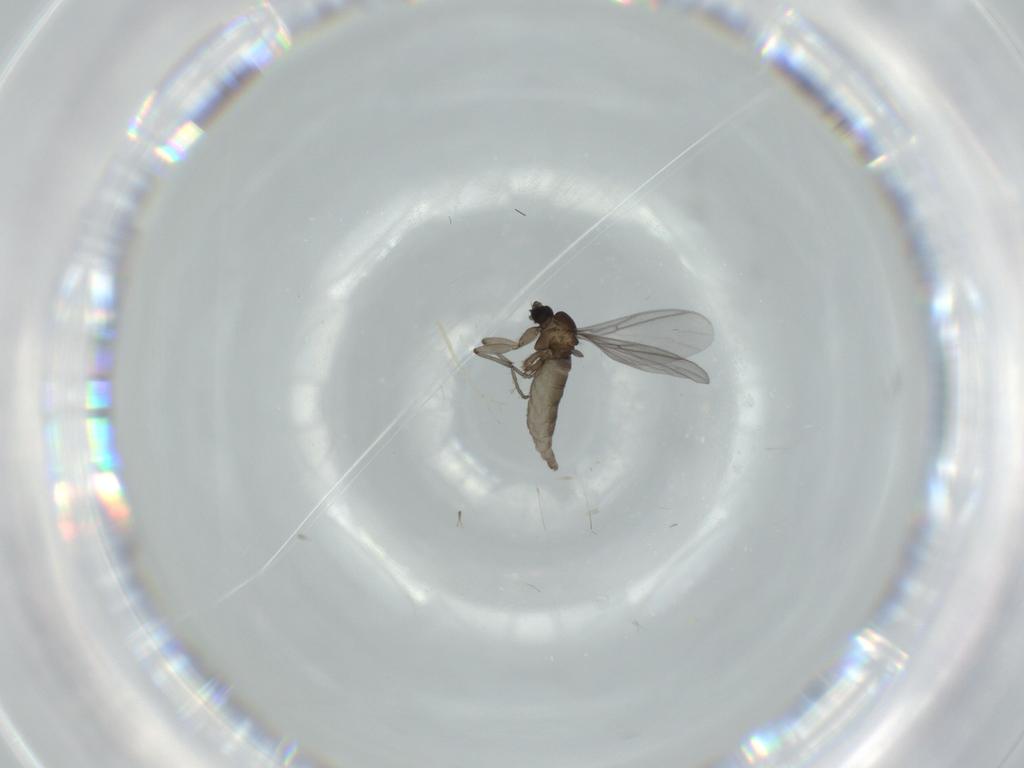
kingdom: Animalia
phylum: Arthropoda
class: Insecta
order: Diptera
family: Sciaridae
